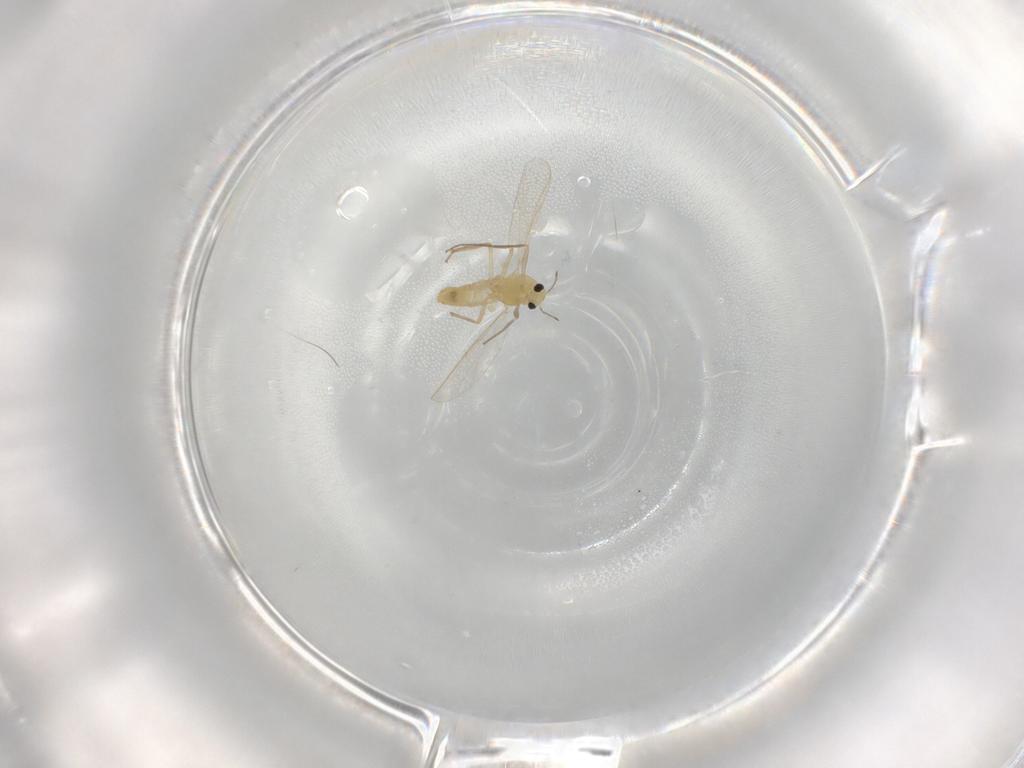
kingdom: Animalia
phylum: Arthropoda
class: Insecta
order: Diptera
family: Chironomidae
